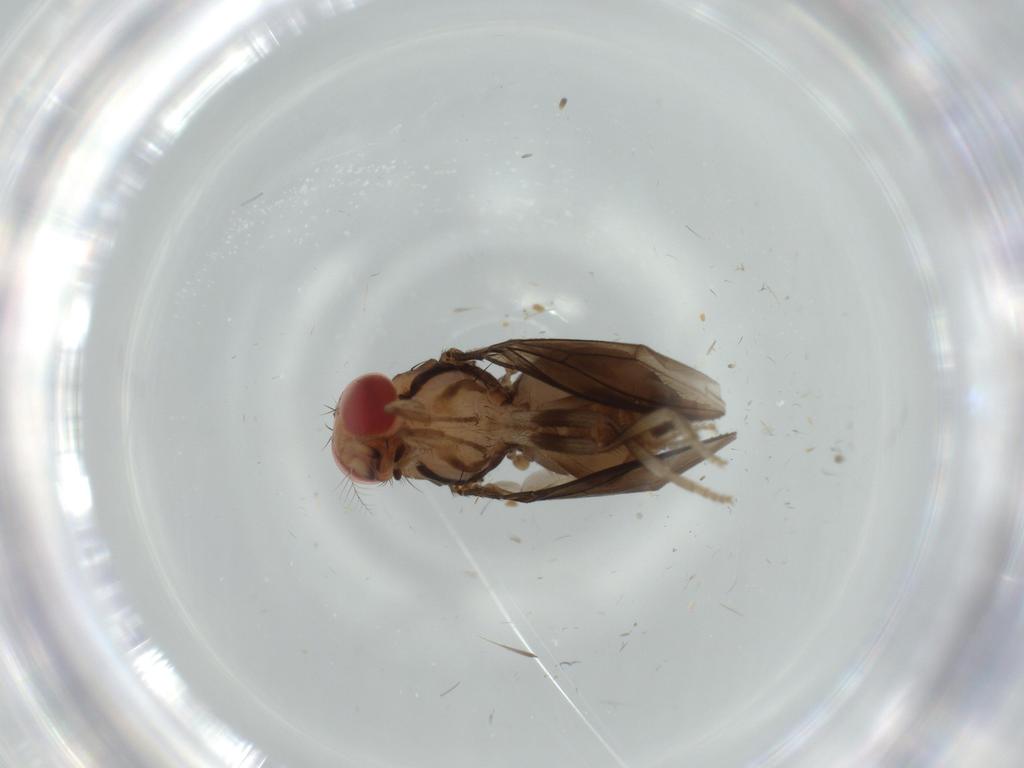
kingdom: Animalia
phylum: Arthropoda
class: Insecta
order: Diptera
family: Drosophilidae
